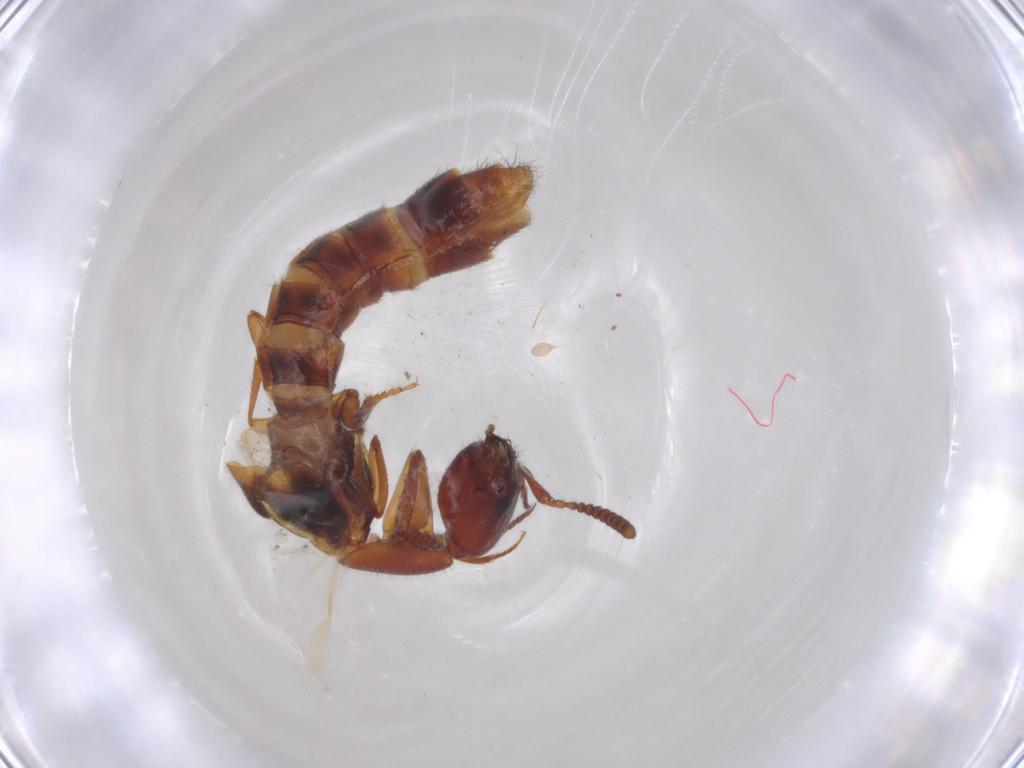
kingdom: Animalia
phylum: Arthropoda
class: Insecta
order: Coleoptera
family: Staphylinidae
